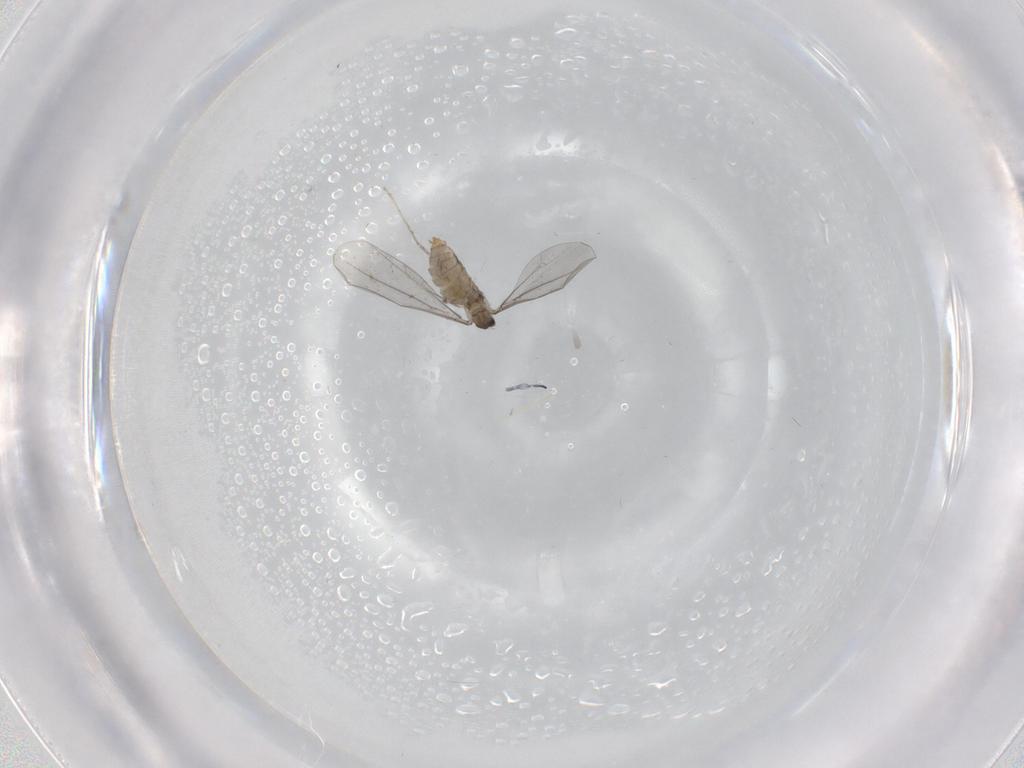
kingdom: Animalia
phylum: Arthropoda
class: Insecta
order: Diptera
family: Cecidomyiidae
